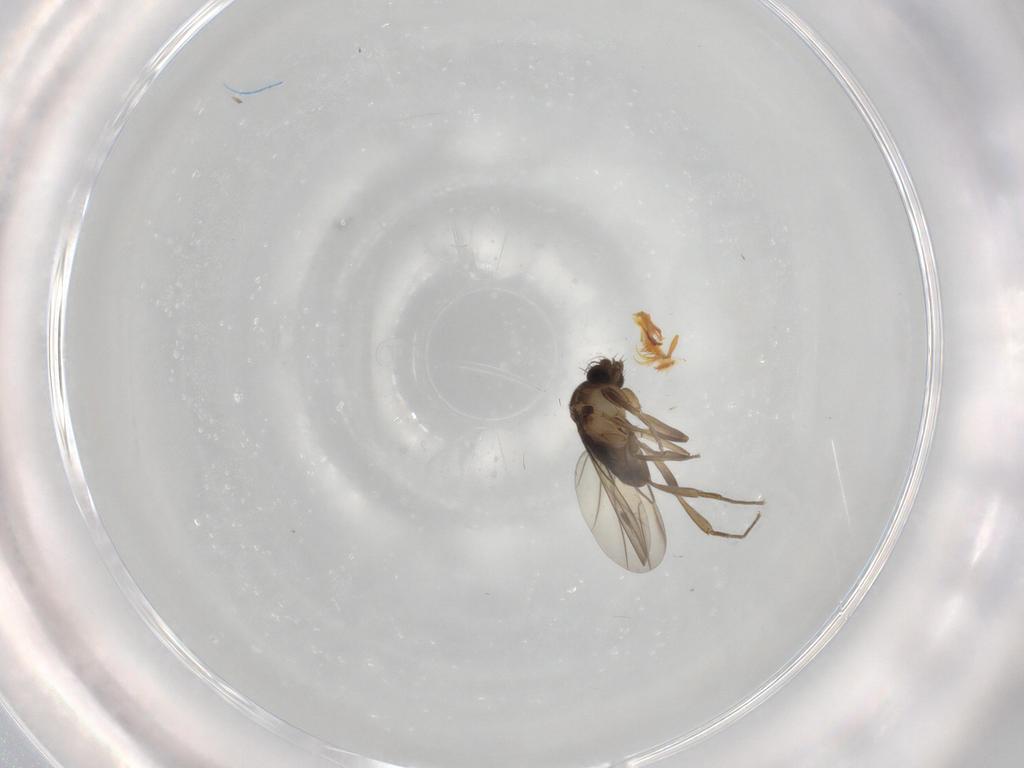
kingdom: Animalia
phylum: Arthropoda
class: Insecta
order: Diptera
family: Phoridae
